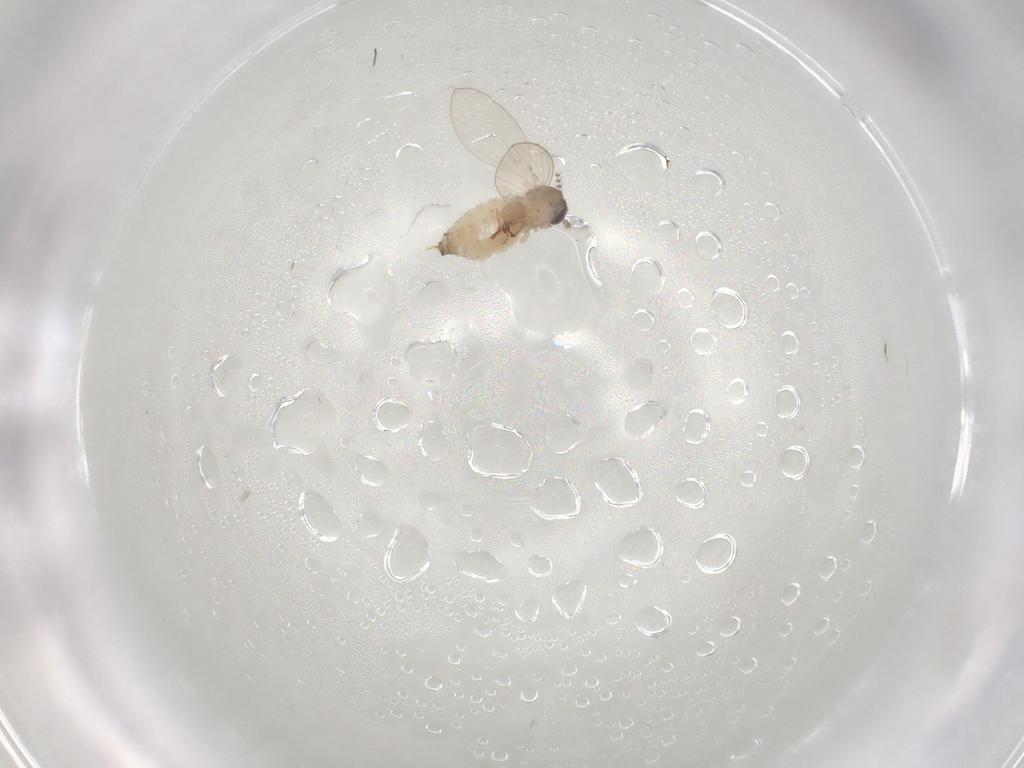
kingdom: Animalia
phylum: Arthropoda
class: Insecta
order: Diptera
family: Psychodidae
